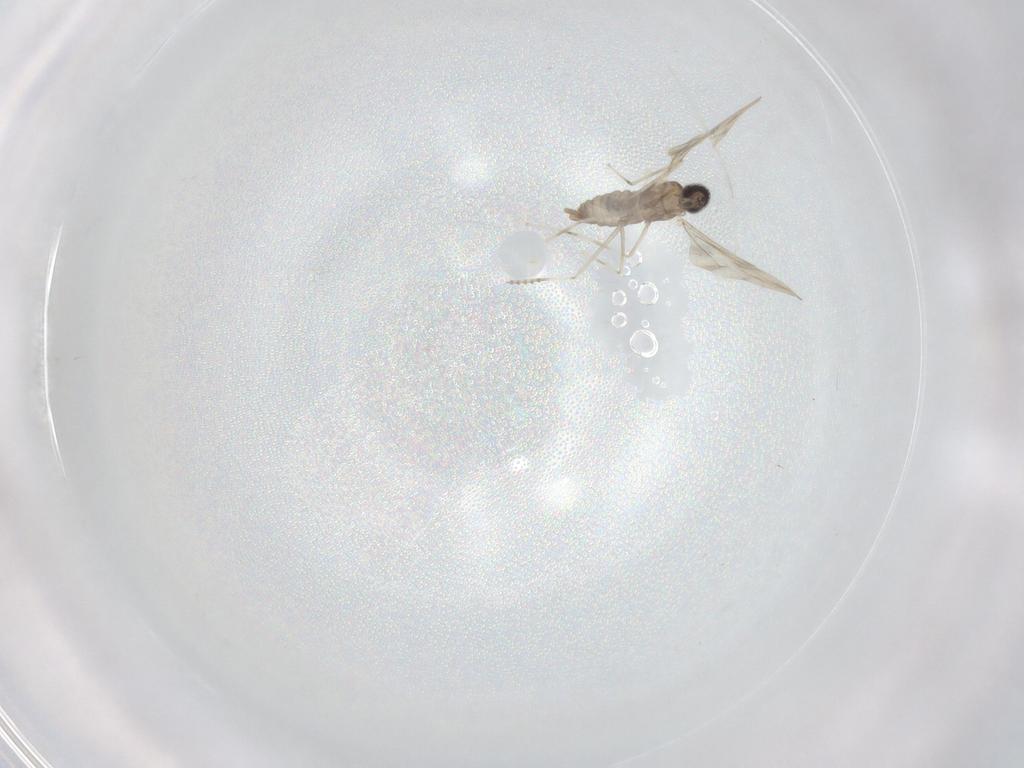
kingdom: Animalia
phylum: Arthropoda
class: Insecta
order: Diptera
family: Cecidomyiidae
